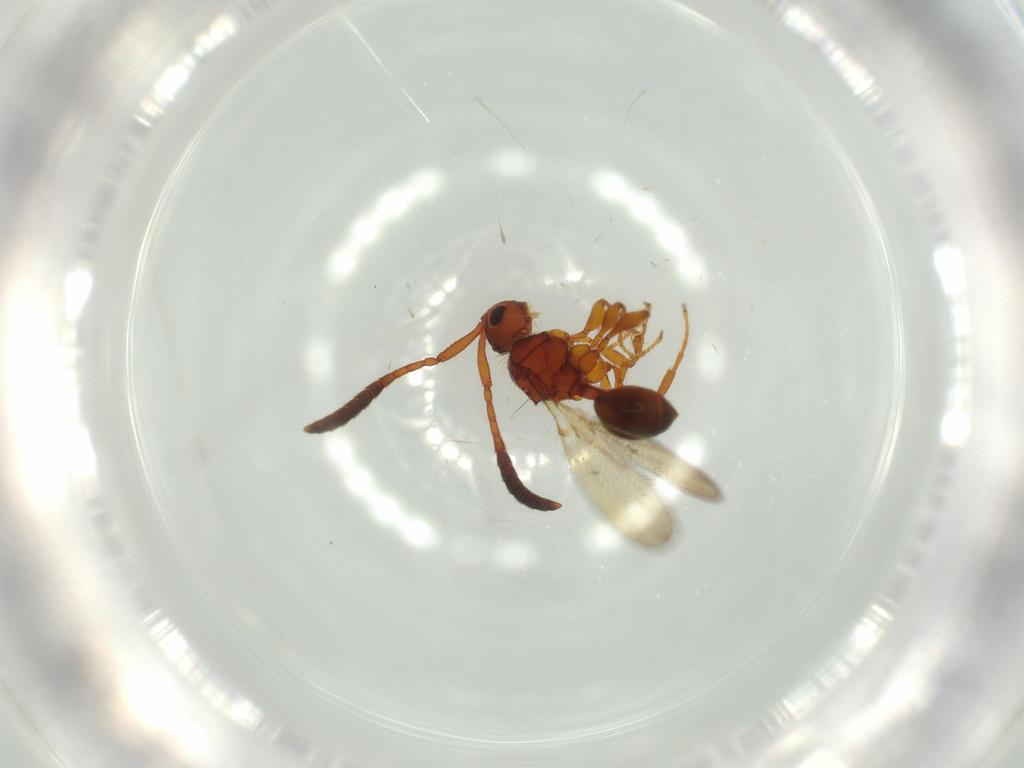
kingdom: Animalia
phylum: Arthropoda
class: Insecta
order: Hymenoptera
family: Diapriidae
